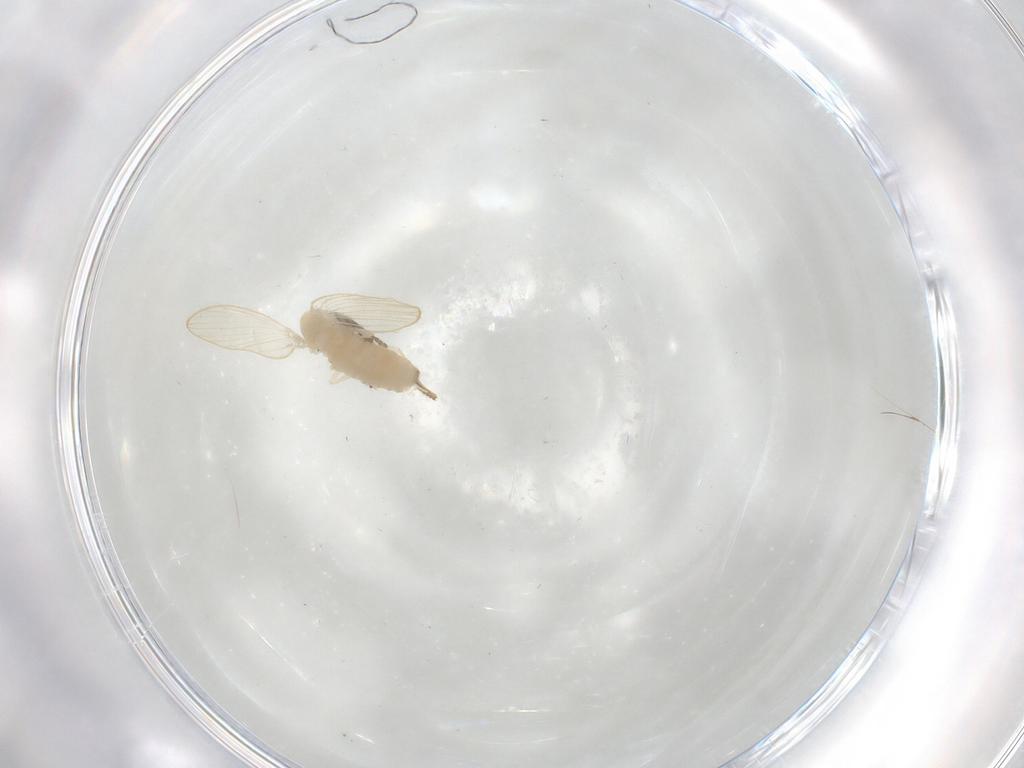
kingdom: Animalia
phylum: Arthropoda
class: Insecta
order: Diptera
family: Psychodidae
